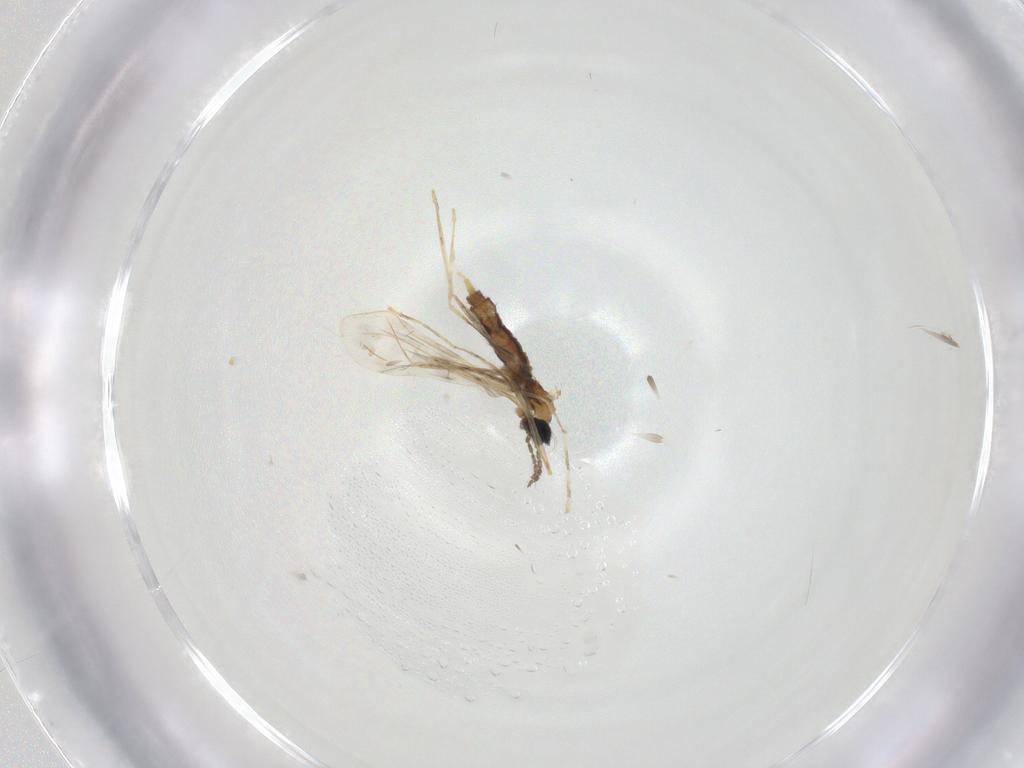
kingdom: Animalia
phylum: Arthropoda
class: Insecta
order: Diptera
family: Cecidomyiidae
